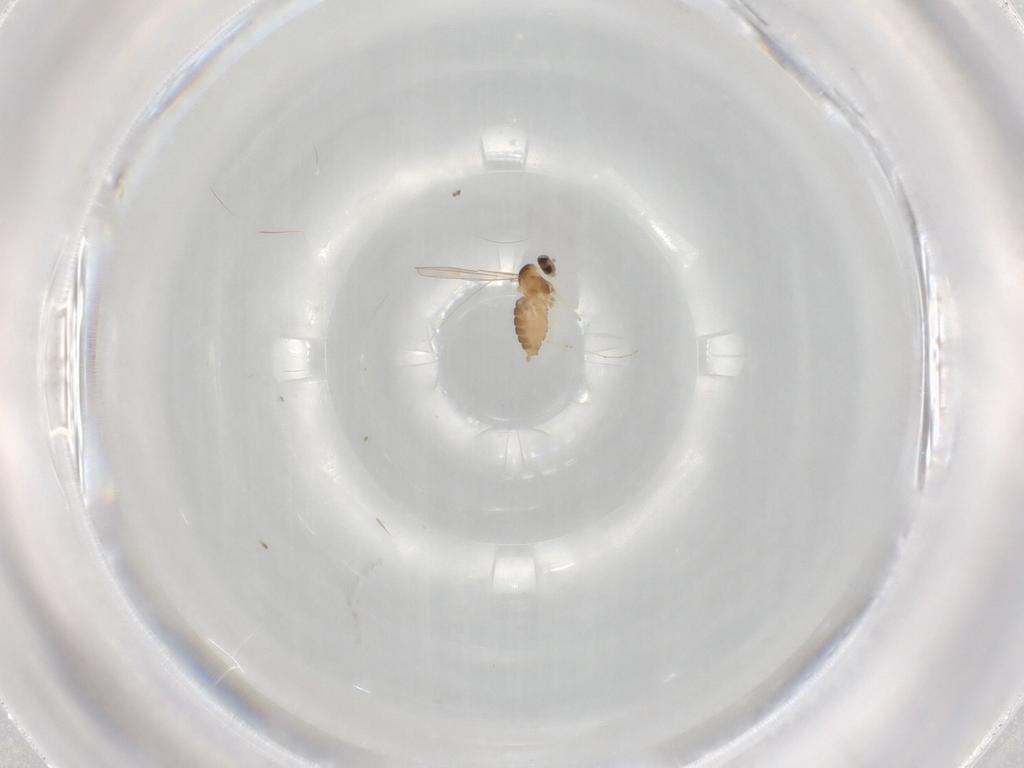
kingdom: Animalia
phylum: Arthropoda
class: Insecta
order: Diptera
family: Cecidomyiidae
